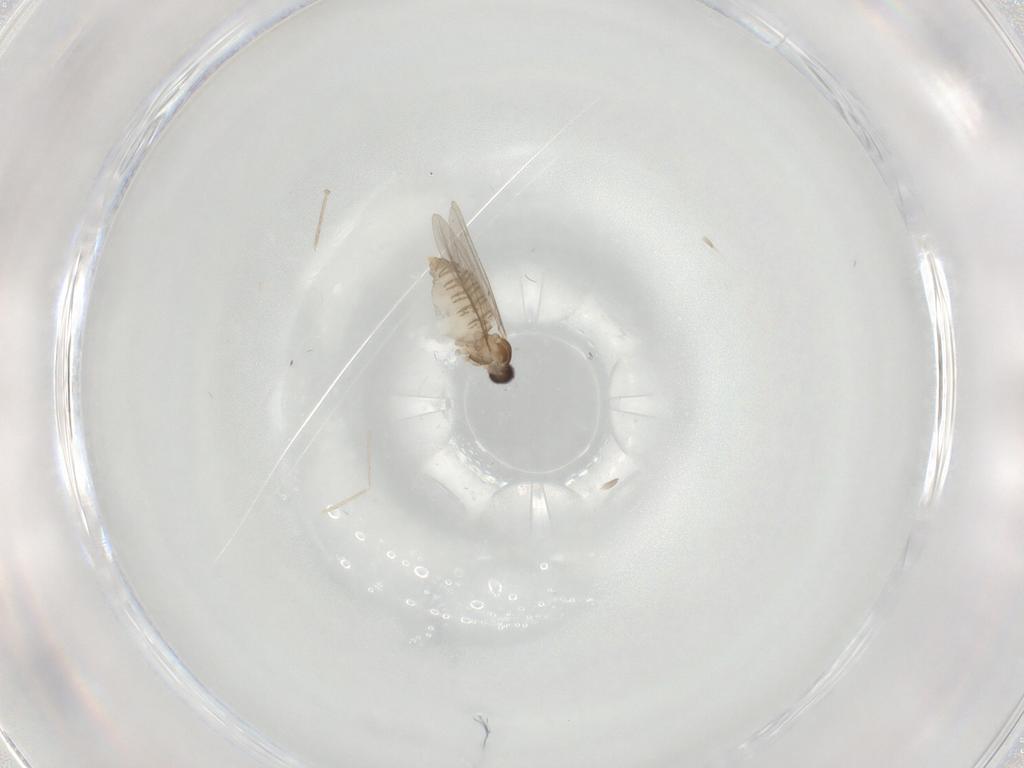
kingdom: Animalia
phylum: Arthropoda
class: Insecta
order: Diptera
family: Cecidomyiidae
